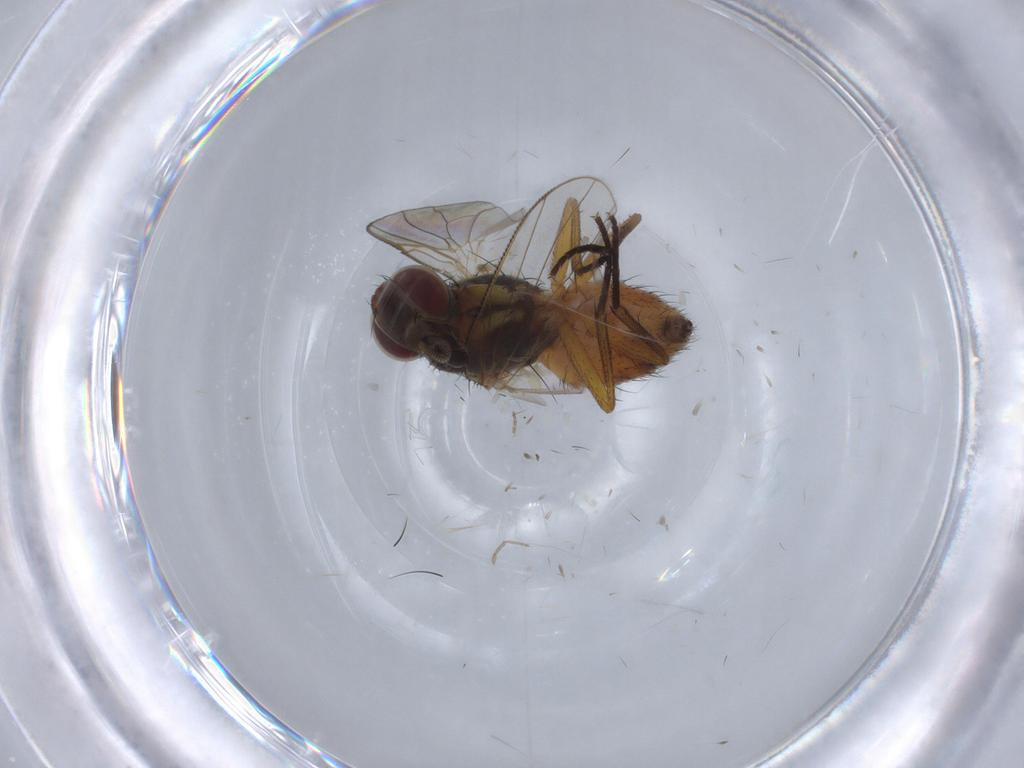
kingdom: Animalia
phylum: Arthropoda
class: Insecta
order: Diptera
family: Muscidae
